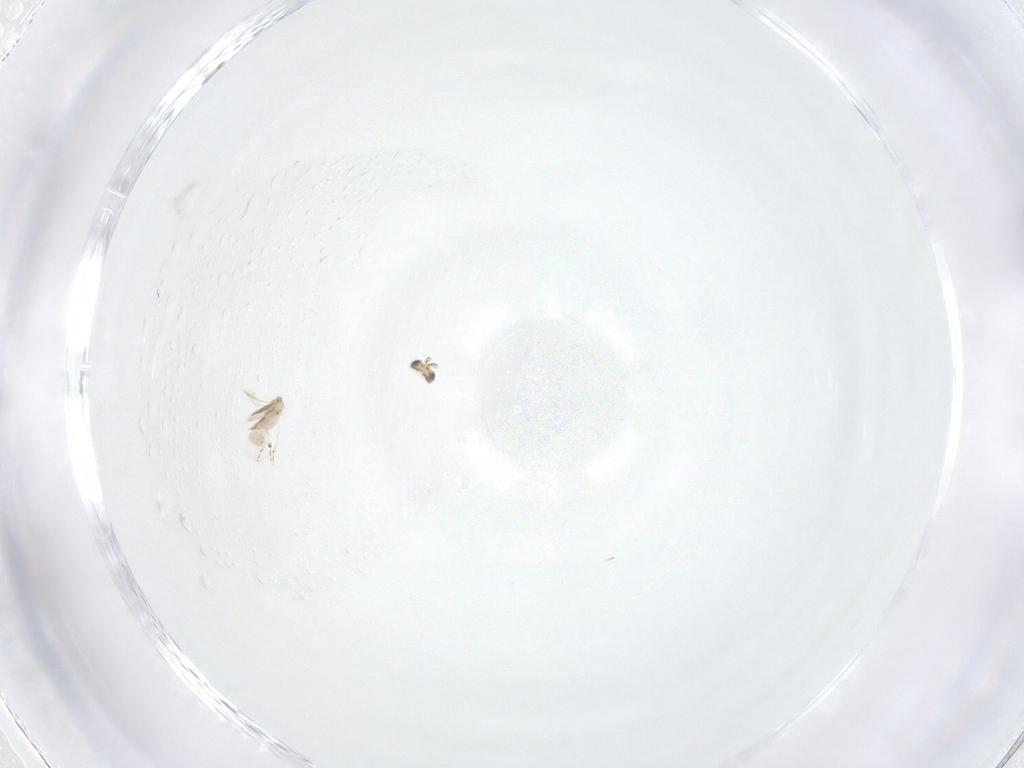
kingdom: Animalia
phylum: Arthropoda
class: Insecta
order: Hymenoptera
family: Aphelinidae
